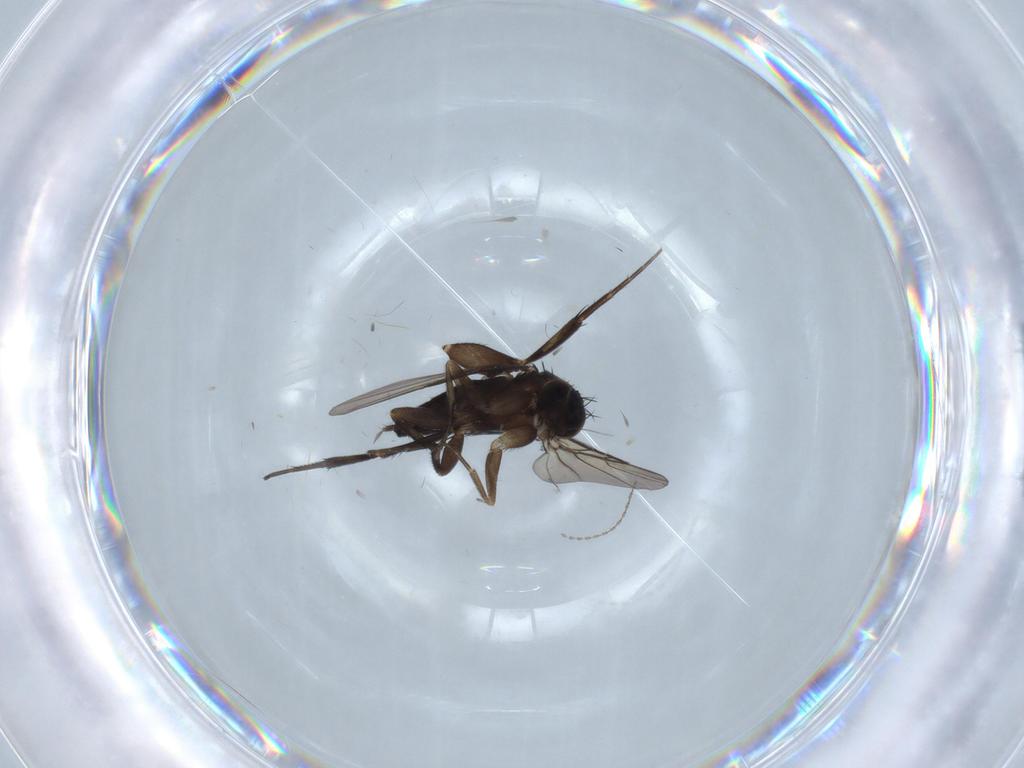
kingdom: Animalia
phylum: Arthropoda
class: Insecta
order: Diptera
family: Phoridae
